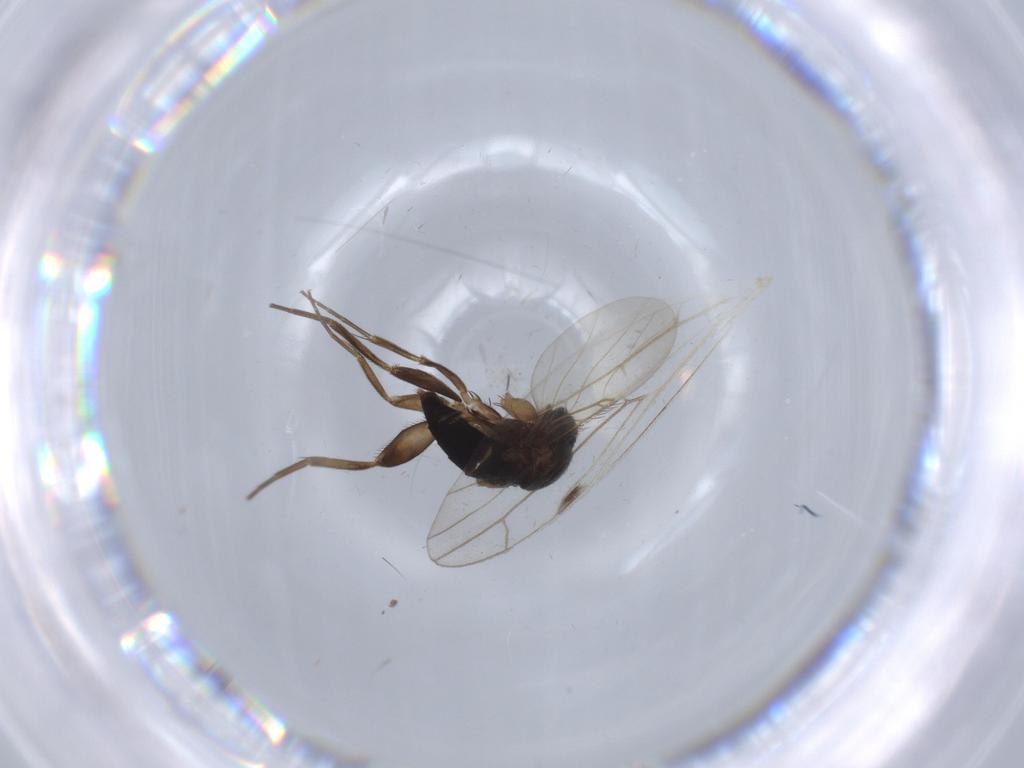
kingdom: Animalia
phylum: Arthropoda
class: Insecta
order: Diptera
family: Phoridae
